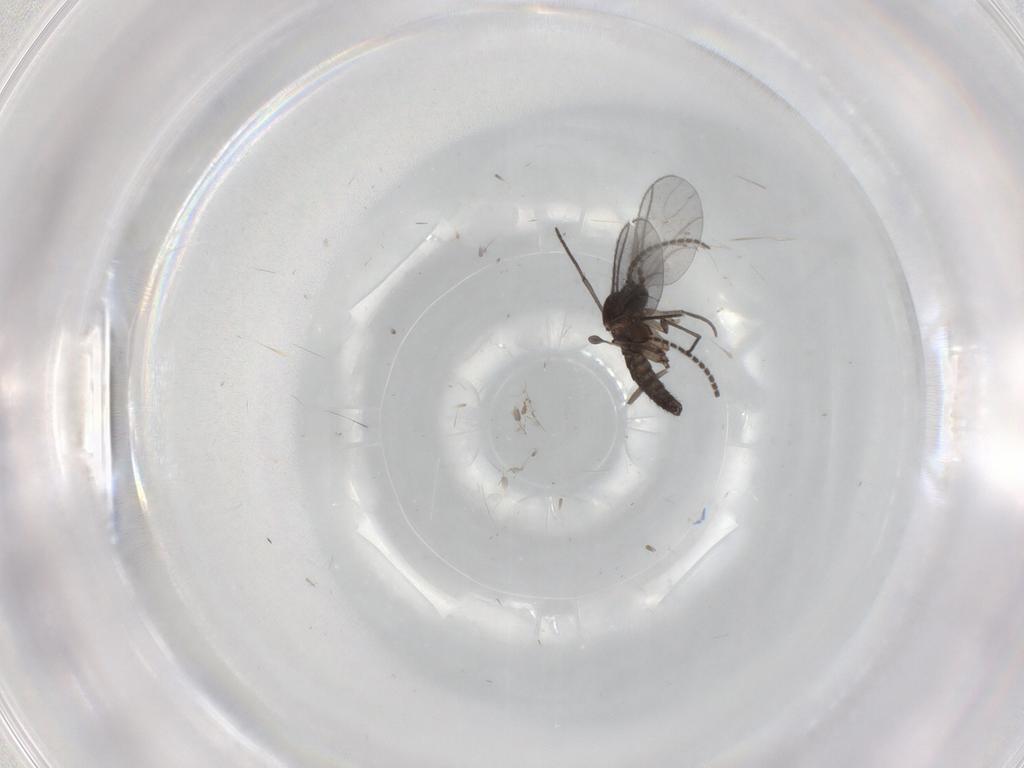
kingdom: Animalia
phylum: Arthropoda
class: Insecta
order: Diptera
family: Cecidomyiidae
